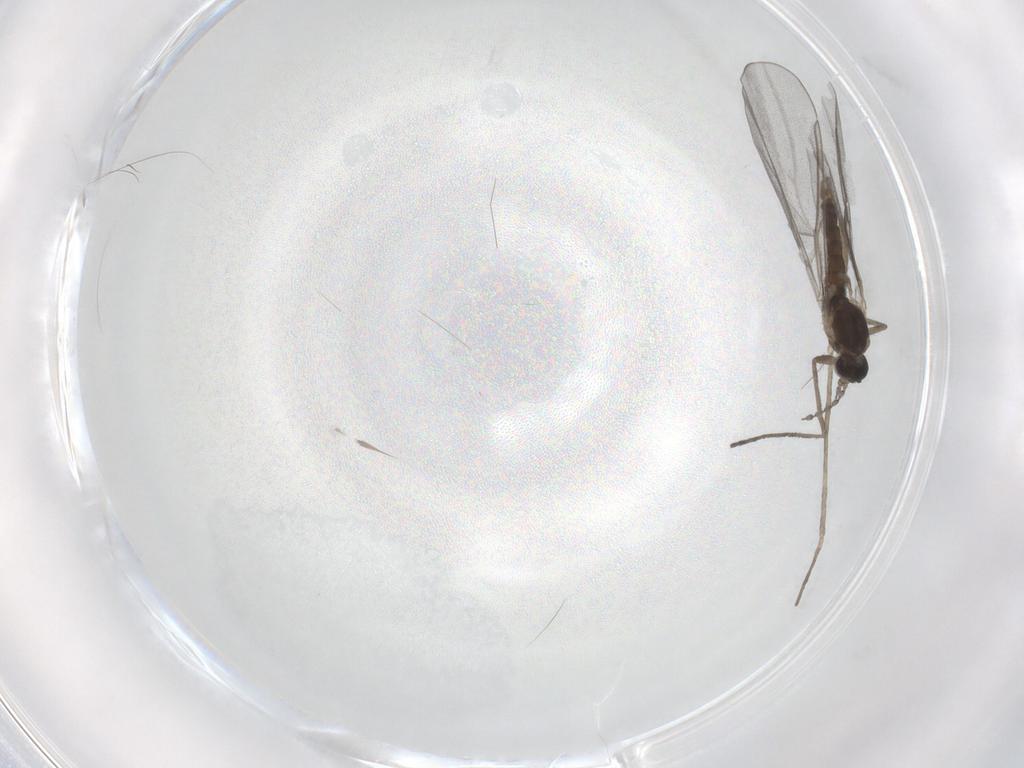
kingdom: Animalia
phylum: Arthropoda
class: Insecta
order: Diptera
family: Cecidomyiidae
